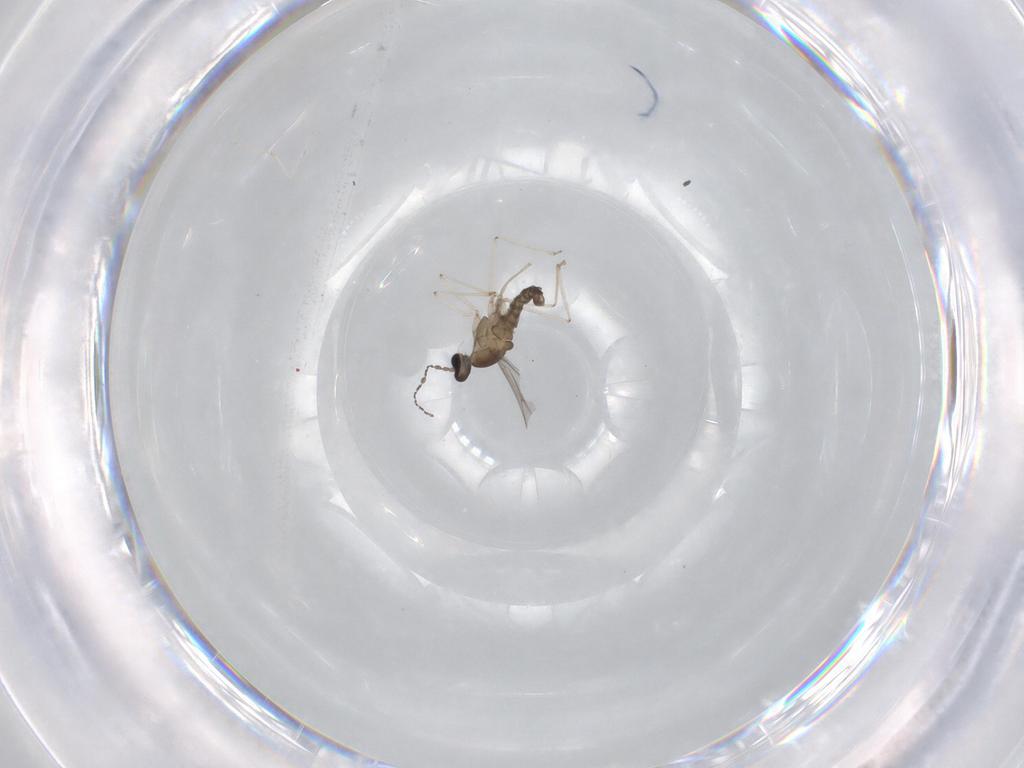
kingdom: Animalia
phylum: Arthropoda
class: Insecta
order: Diptera
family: Cecidomyiidae
